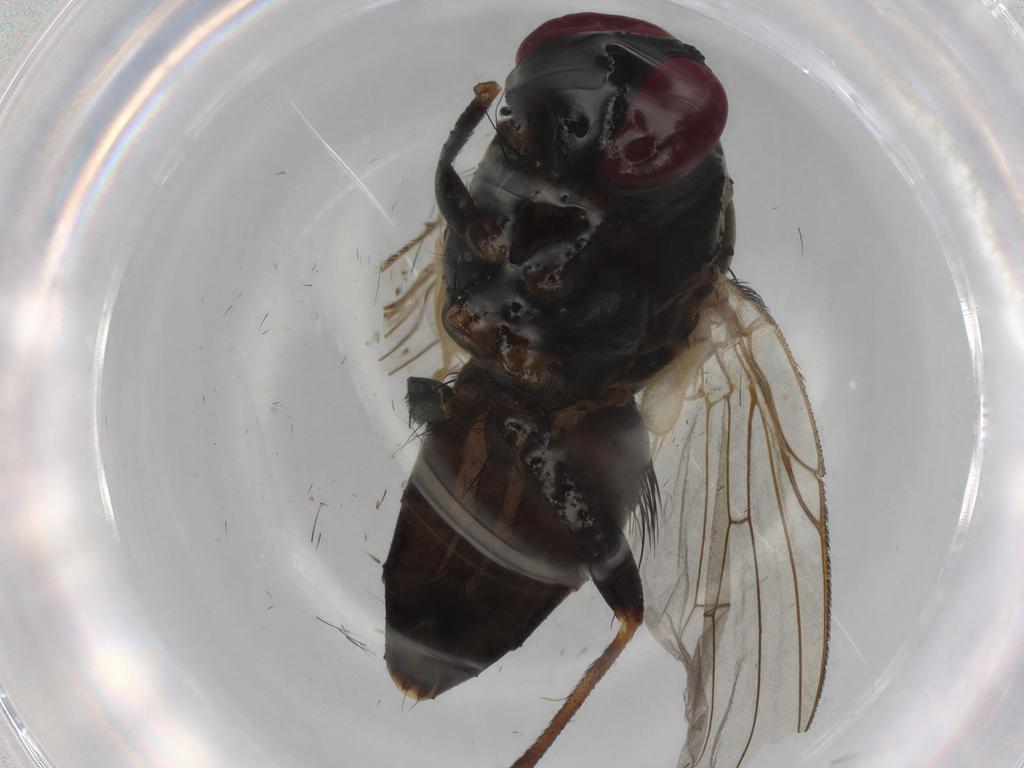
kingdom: Animalia
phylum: Arthropoda
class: Insecta
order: Diptera
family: Muscidae
